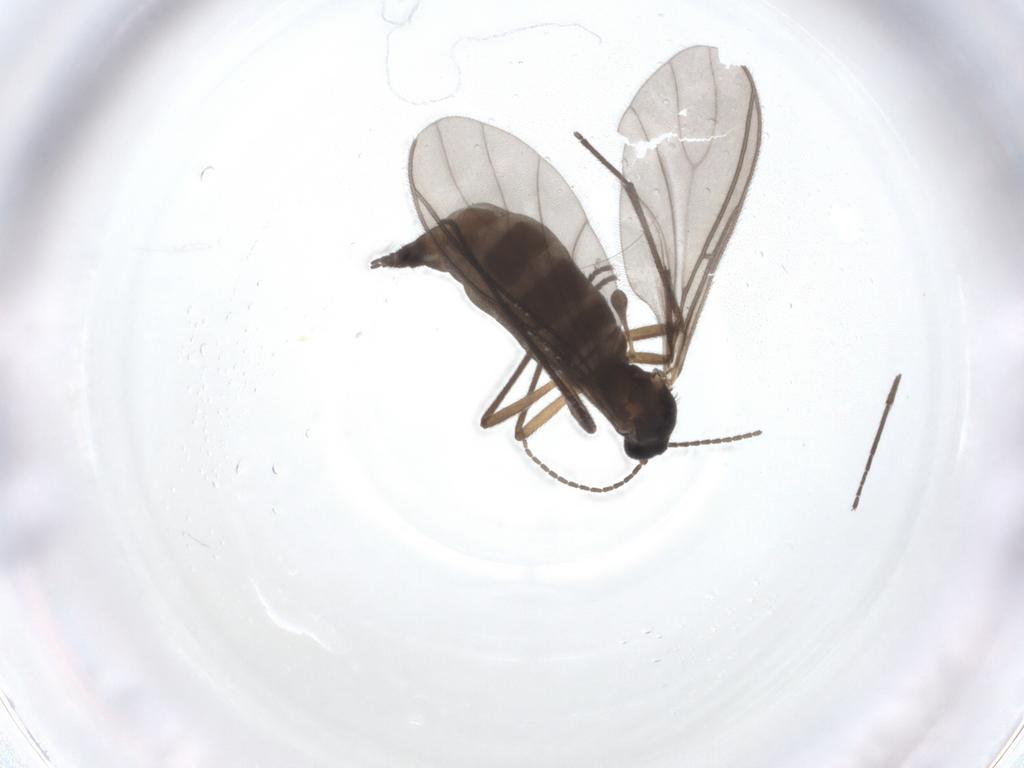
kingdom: Animalia
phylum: Arthropoda
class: Insecta
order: Diptera
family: Sciaridae
